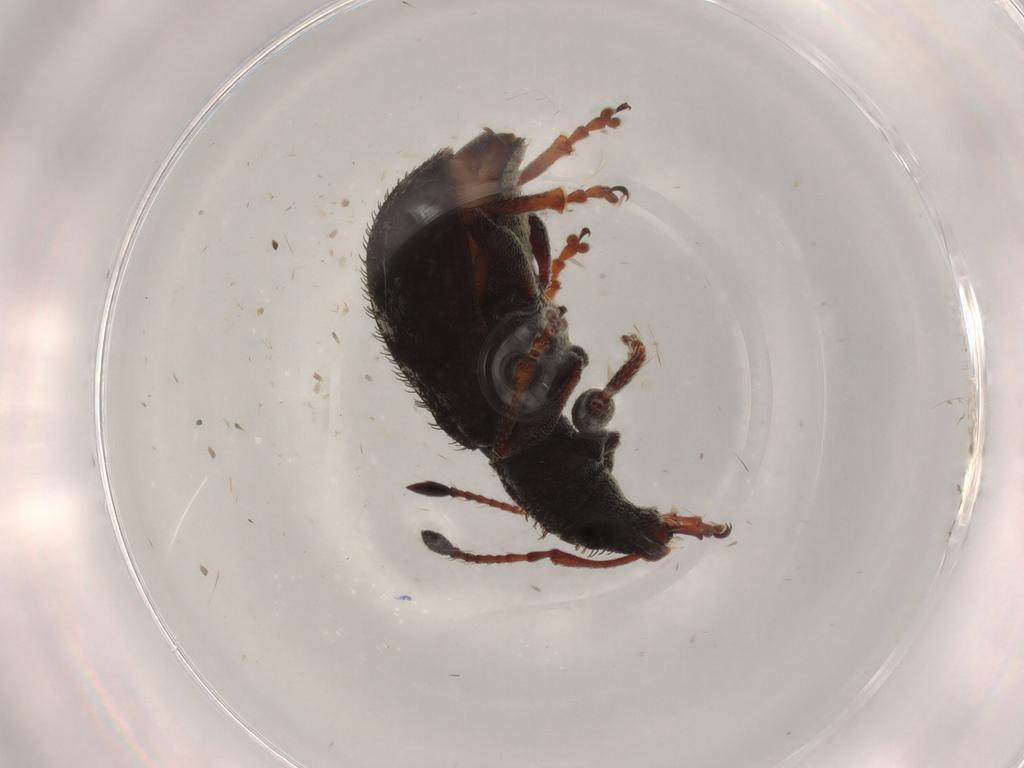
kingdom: Animalia
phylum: Arthropoda
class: Insecta
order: Coleoptera
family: Curculionidae
